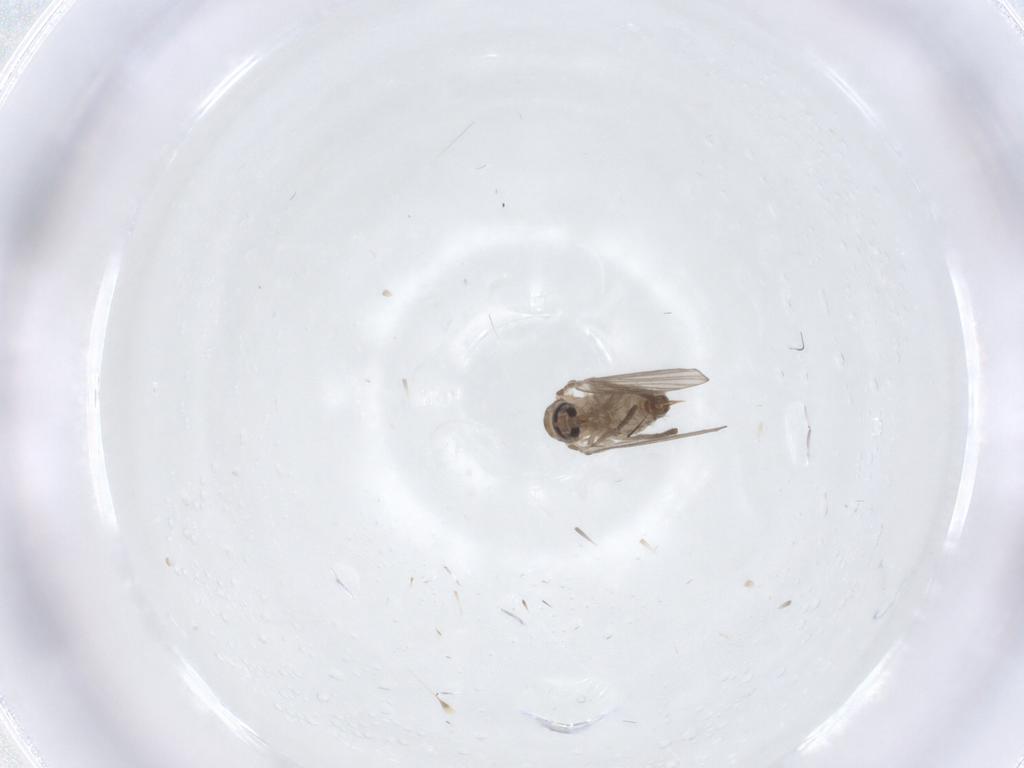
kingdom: Animalia
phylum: Arthropoda
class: Insecta
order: Diptera
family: Psychodidae
